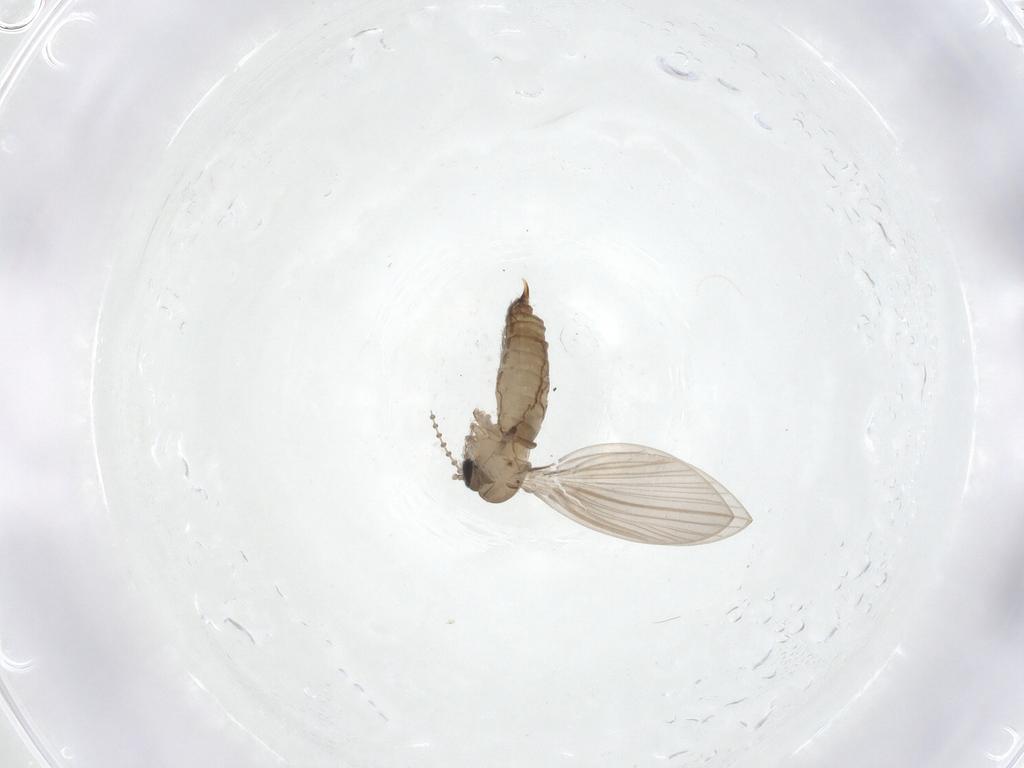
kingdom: Animalia
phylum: Arthropoda
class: Insecta
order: Diptera
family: Psychodidae
